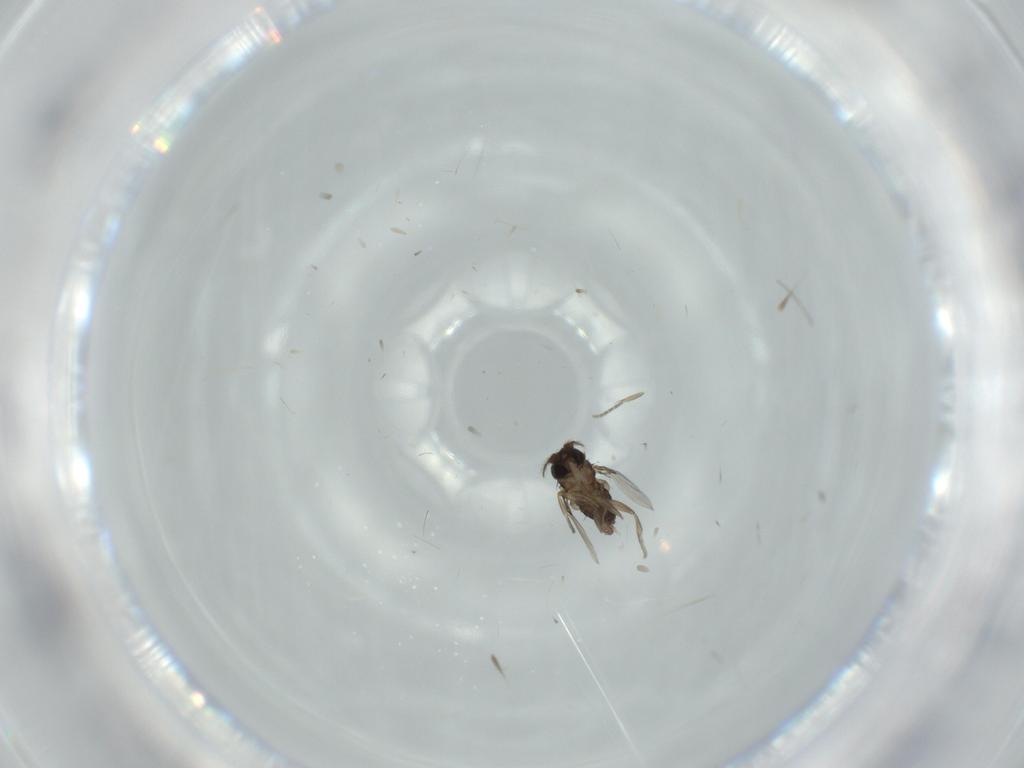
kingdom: Animalia
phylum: Arthropoda
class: Insecta
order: Diptera
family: Phoridae
